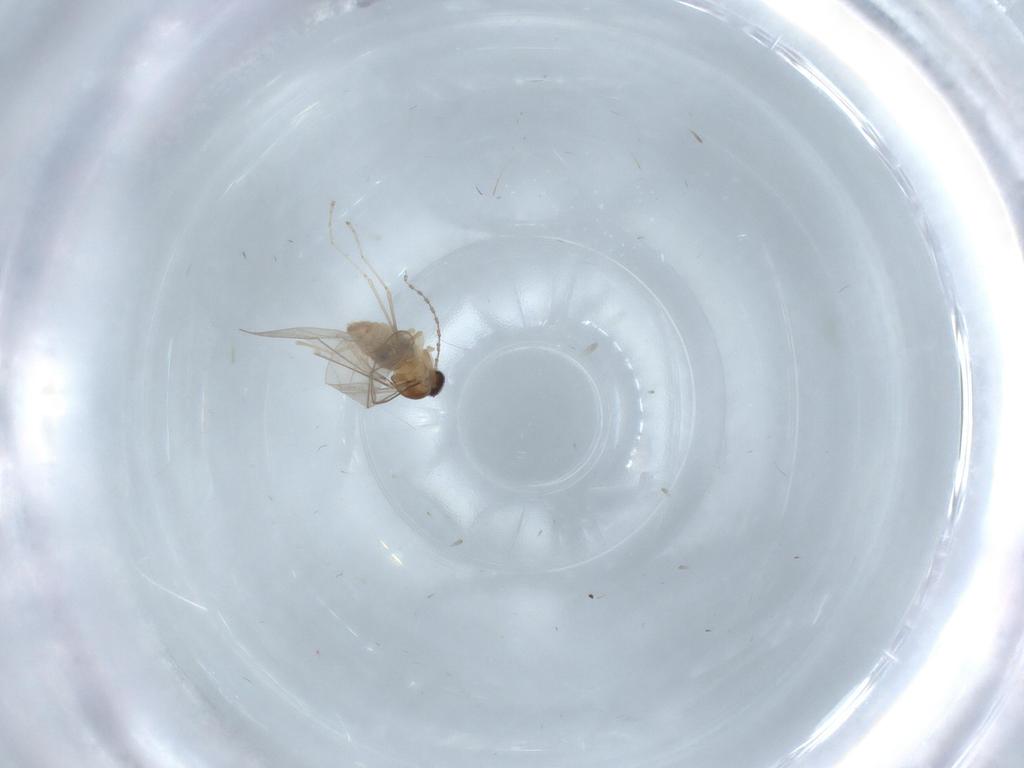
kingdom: Animalia
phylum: Arthropoda
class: Insecta
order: Diptera
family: Cecidomyiidae
